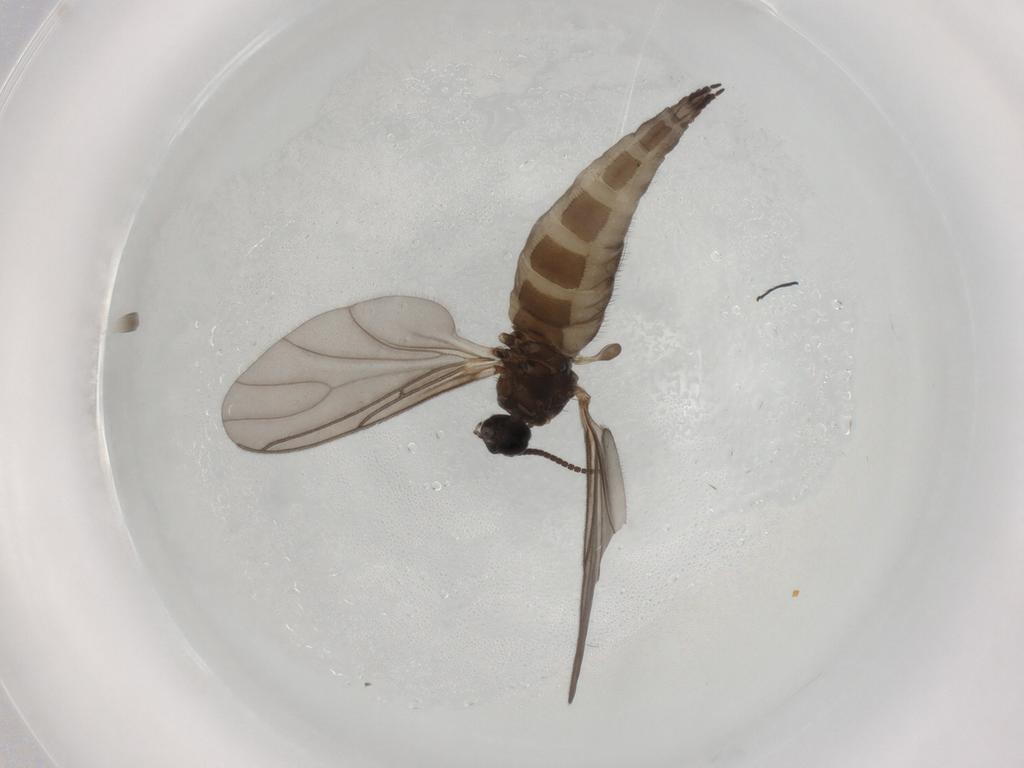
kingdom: Animalia
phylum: Arthropoda
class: Insecta
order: Diptera
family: Sciaridae
